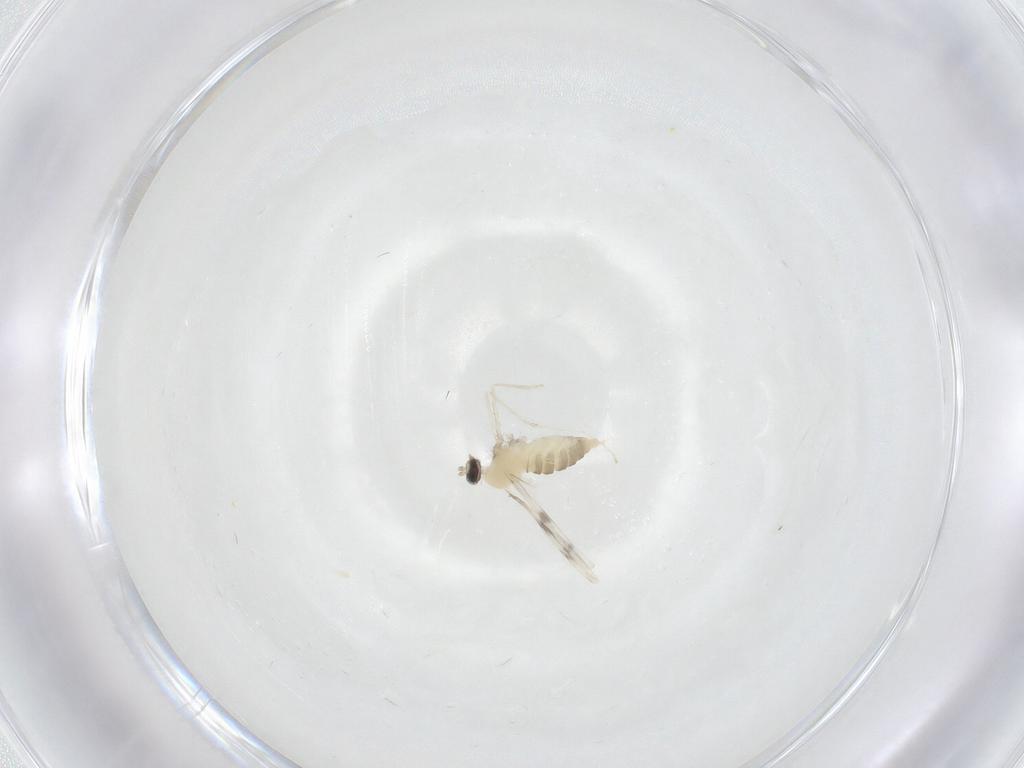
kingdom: Animalia
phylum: Arthropoda
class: Insecta
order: Diptera
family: Cecidomyiidae
